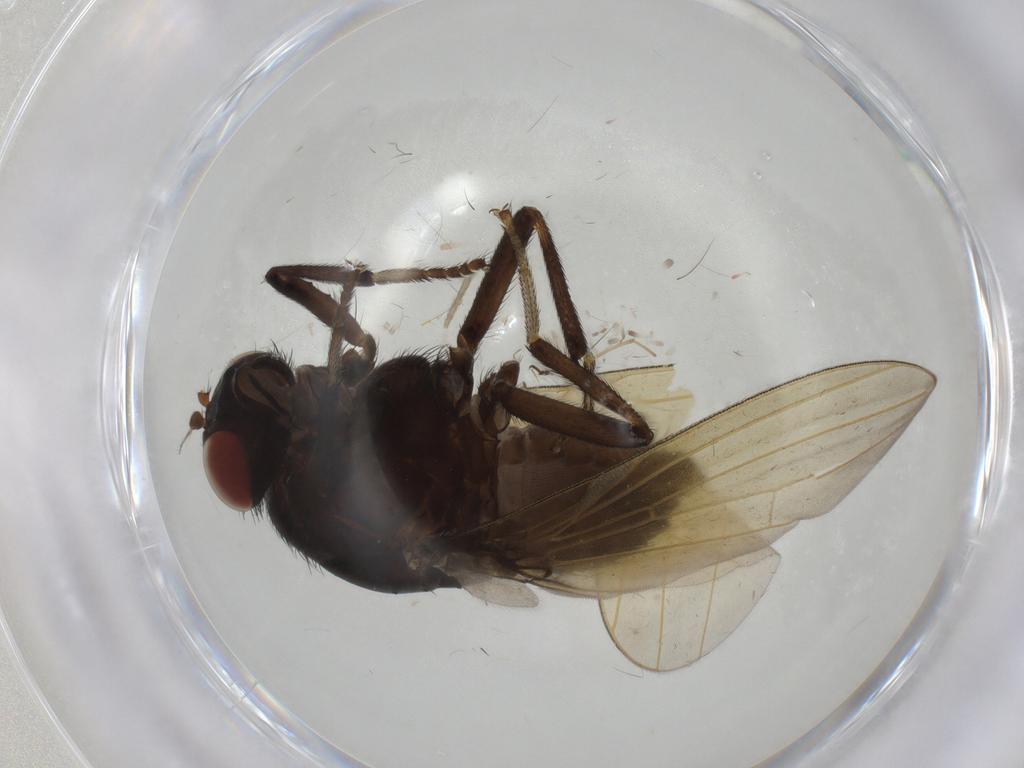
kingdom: Animalia
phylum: Arthropoda
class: Insecta
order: Diptera
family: Chironomidae
